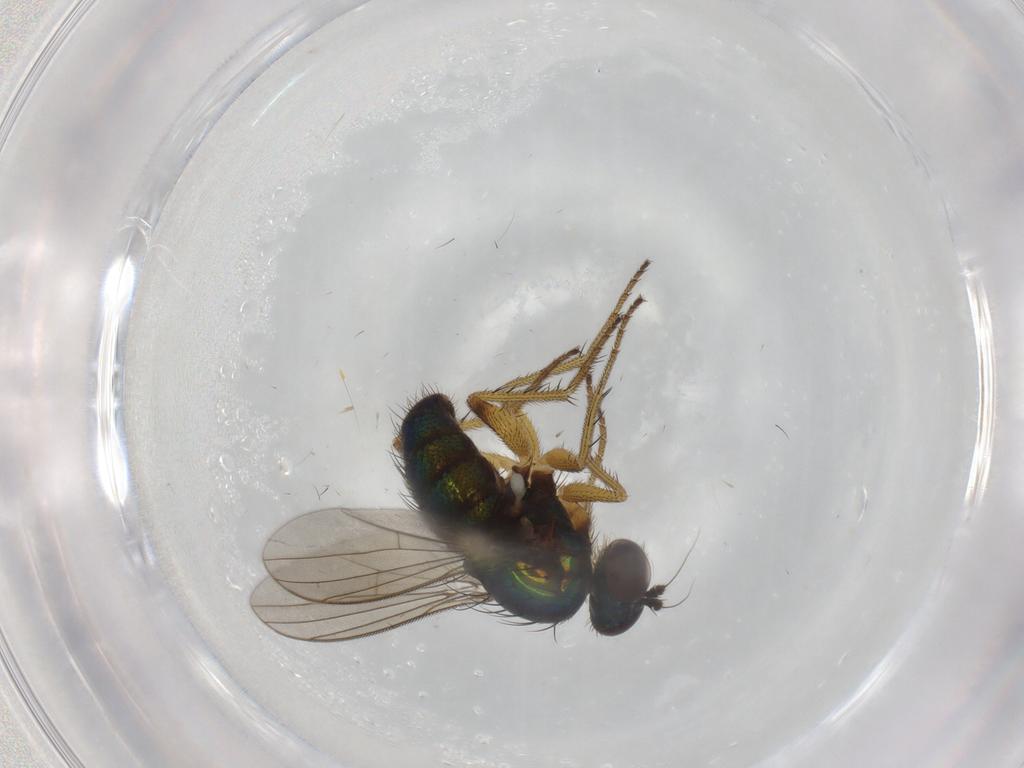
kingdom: Animalia
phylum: Arthropoda
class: Insecta
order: Diptera
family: Dolichopodidae
